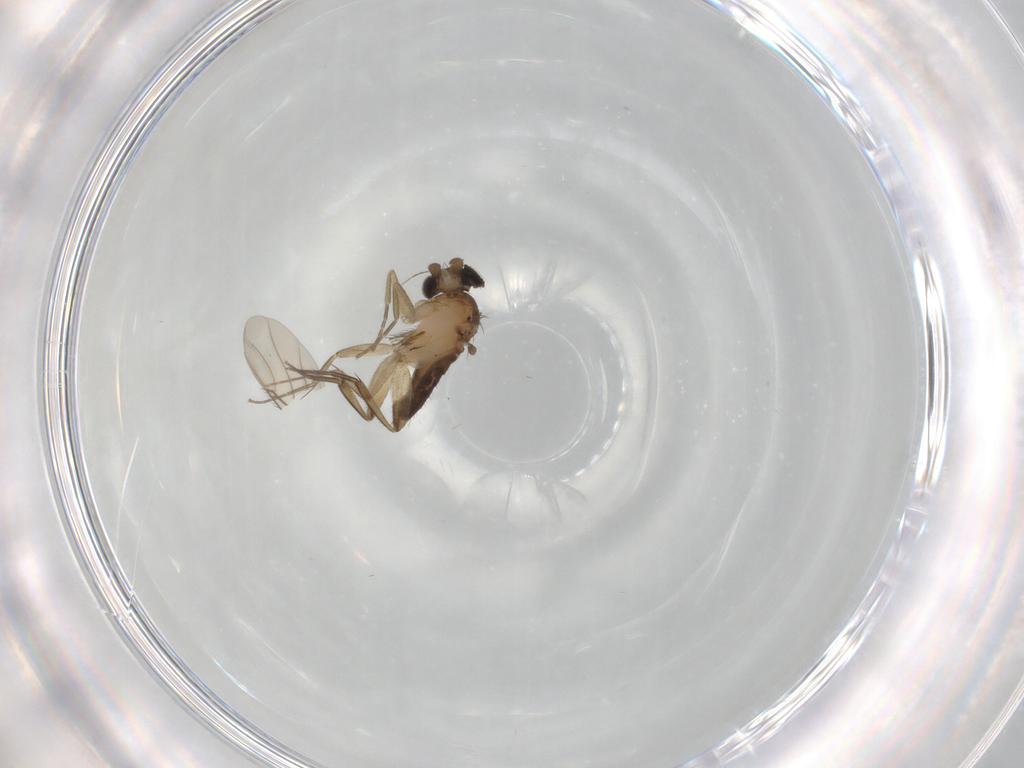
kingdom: Animalia
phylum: Arthropoda
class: Insecta
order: Diptera
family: Phoridae
